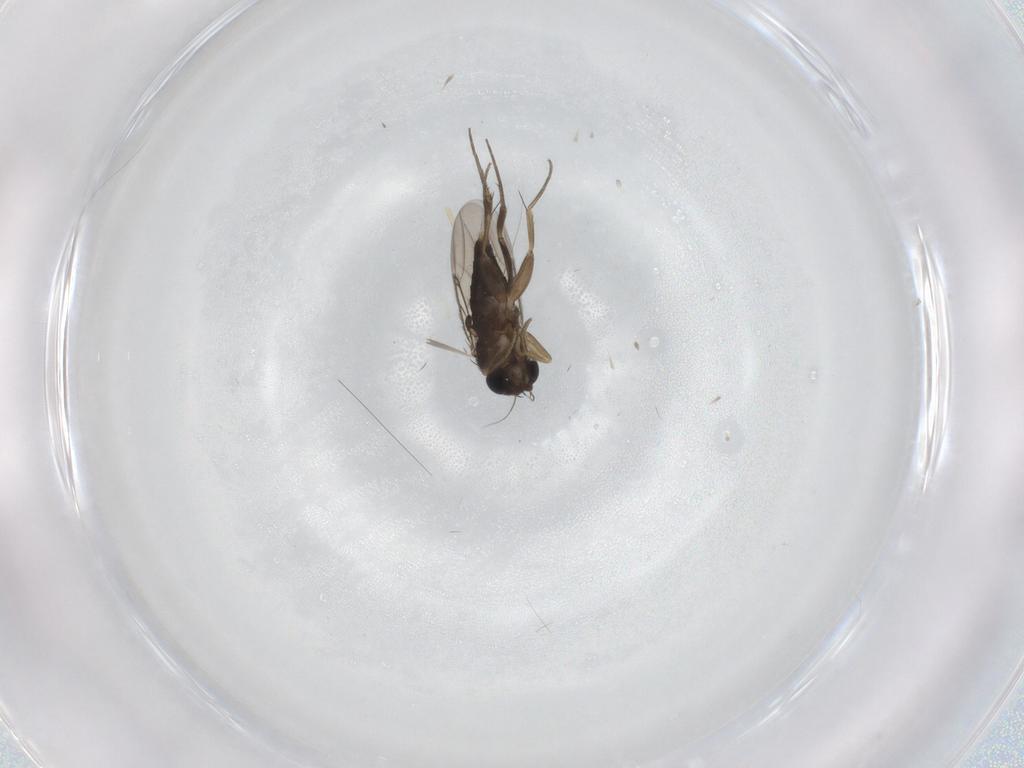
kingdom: Animalia
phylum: Arthropoda
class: Insecta
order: Diptera
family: Phoridae
